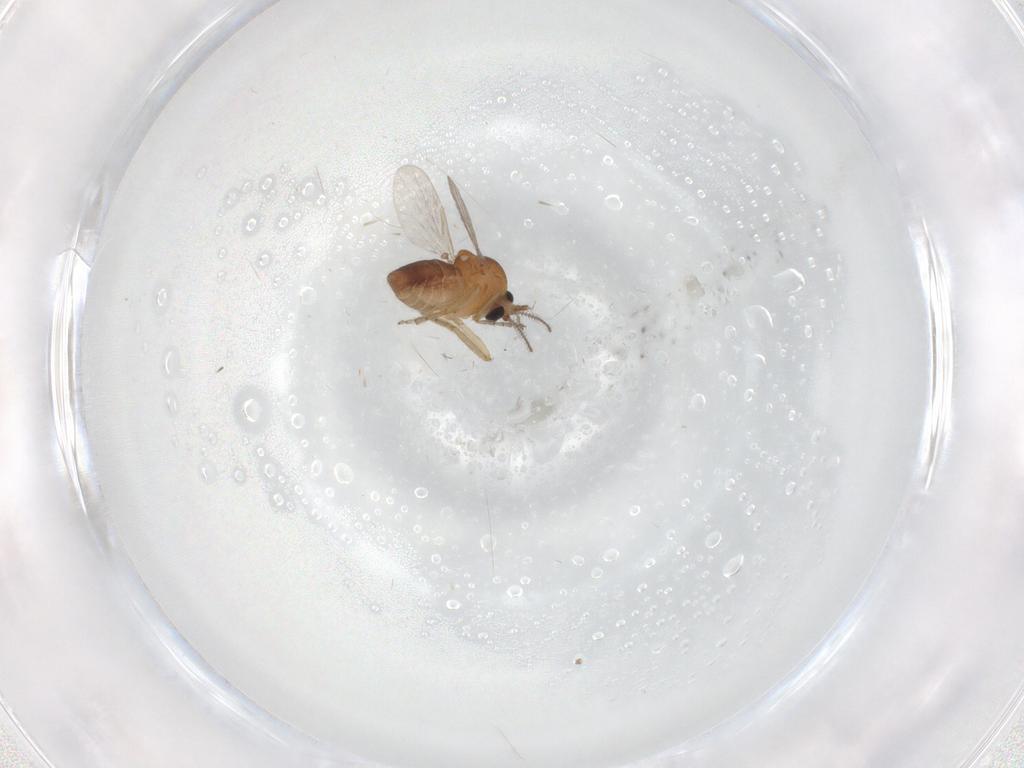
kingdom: Animalia
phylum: Arthropoda
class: Insecta
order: Diptera
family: Ceratopogonidae
